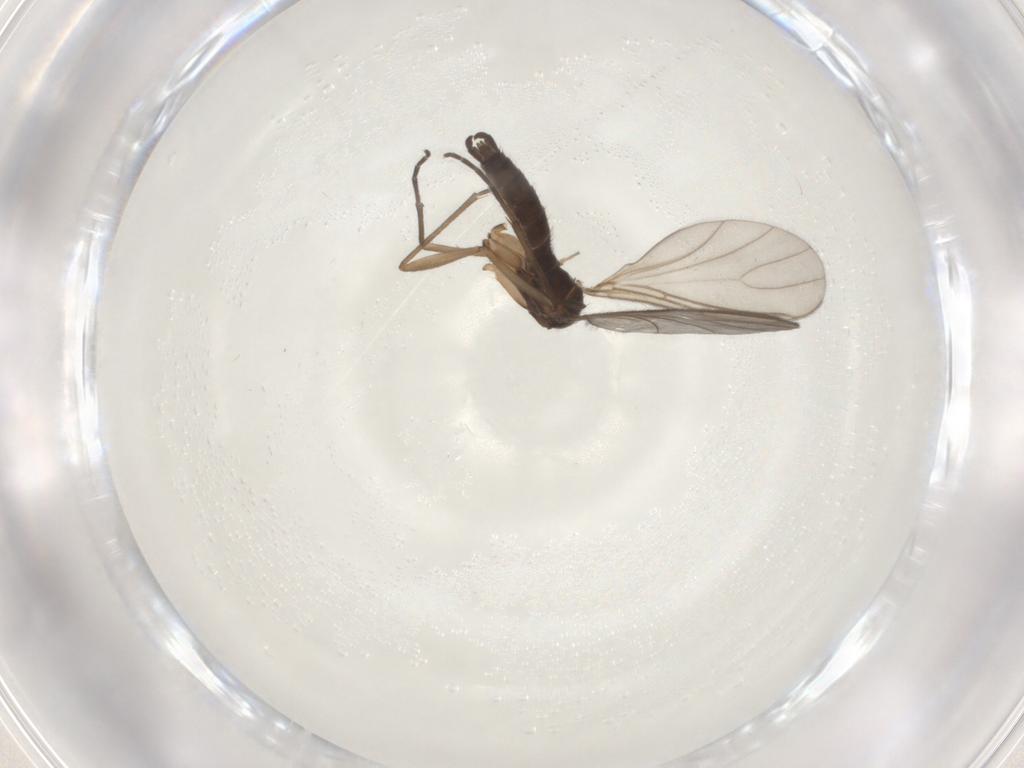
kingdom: Animalia
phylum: Arthropoda
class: Insecta
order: Diptera
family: Sciaridae
